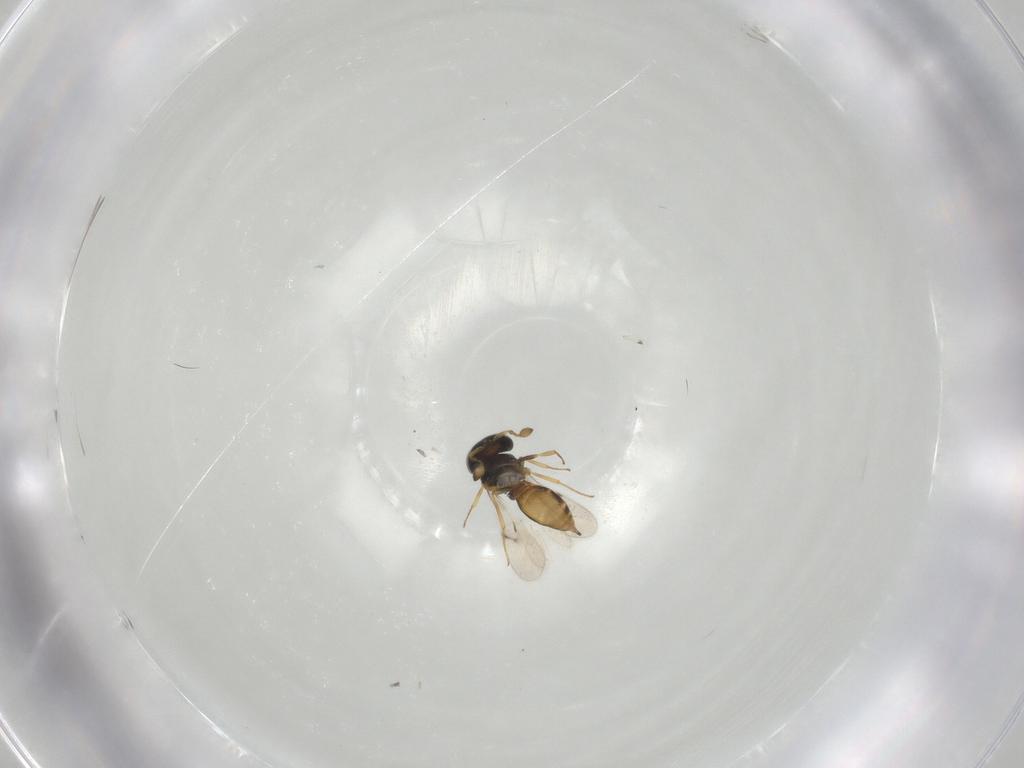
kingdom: Animalia
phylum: Arthropoda
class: Insecta
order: Hymenoptera
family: Scelionidae
